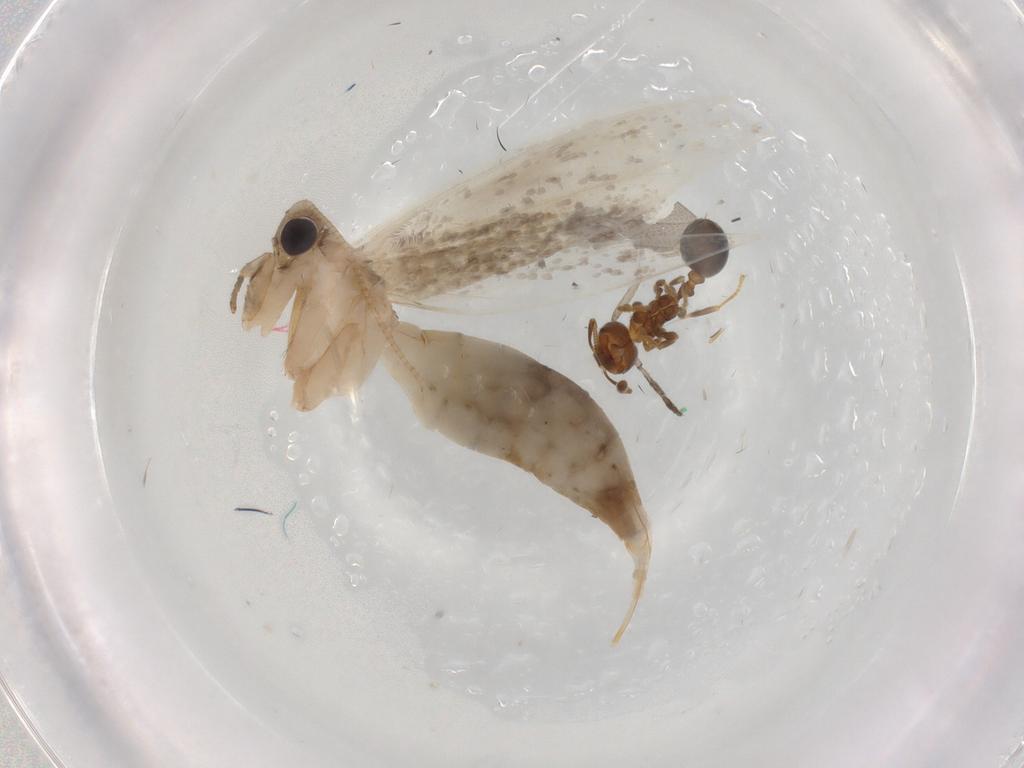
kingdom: Animalia
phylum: Arthropoda
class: Insecta
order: Lepidoptera
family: Tineidae
